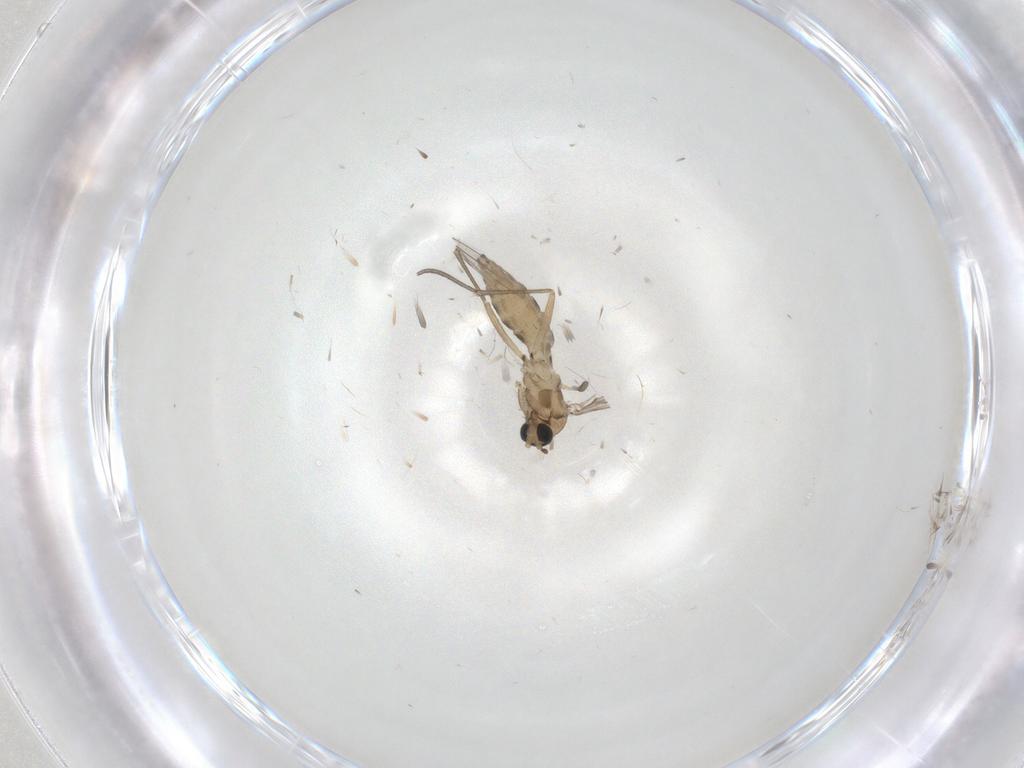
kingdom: Animalia
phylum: Arthropoda
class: Insecta
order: Diptera
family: Sciaridae
